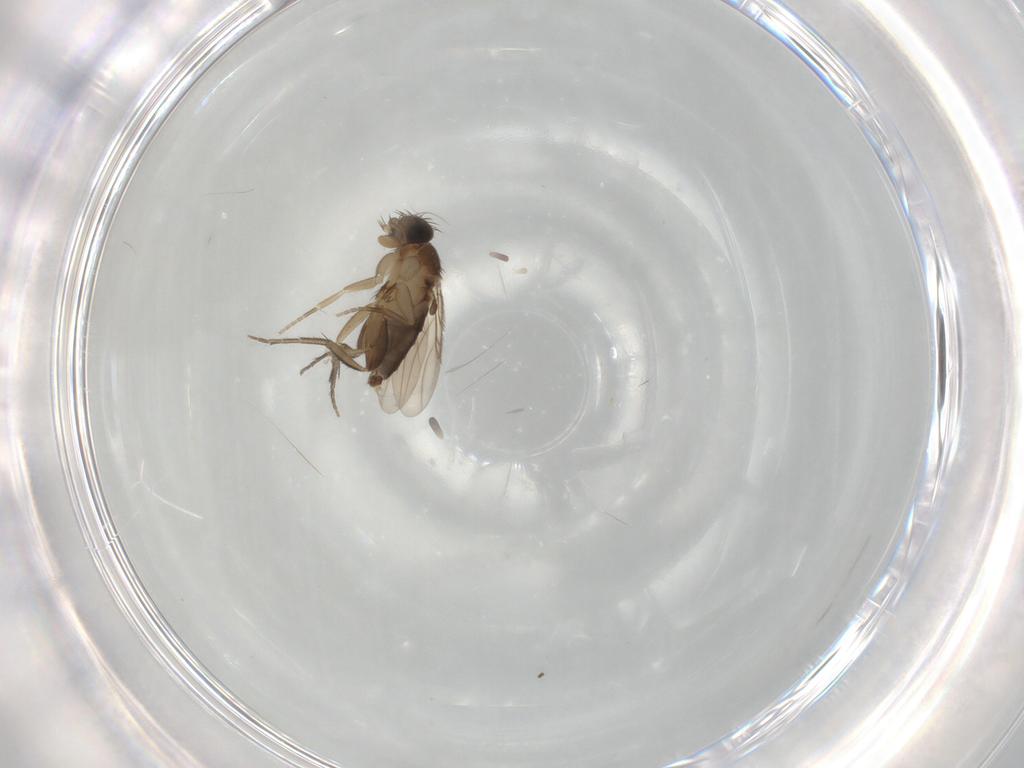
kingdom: Animalia
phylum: Arthropoda
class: Insecta
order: Diptera
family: Phoridae
